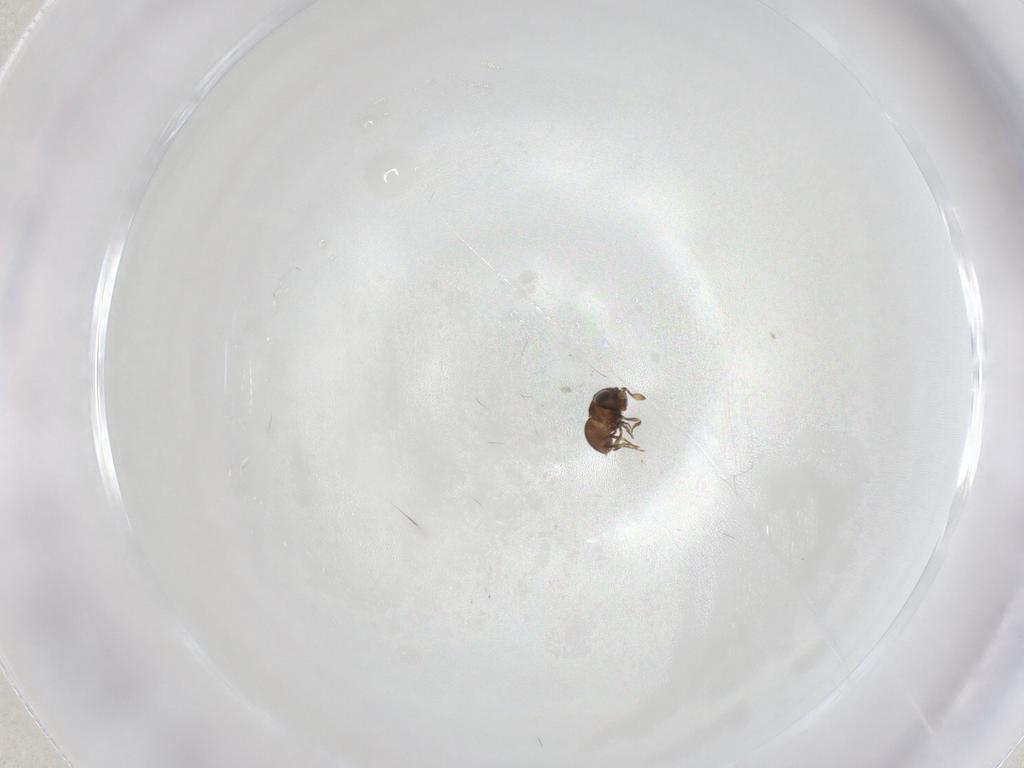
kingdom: Animalia
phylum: Arthropoda
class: Insecta
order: Hymenoptera
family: Scelionidae
